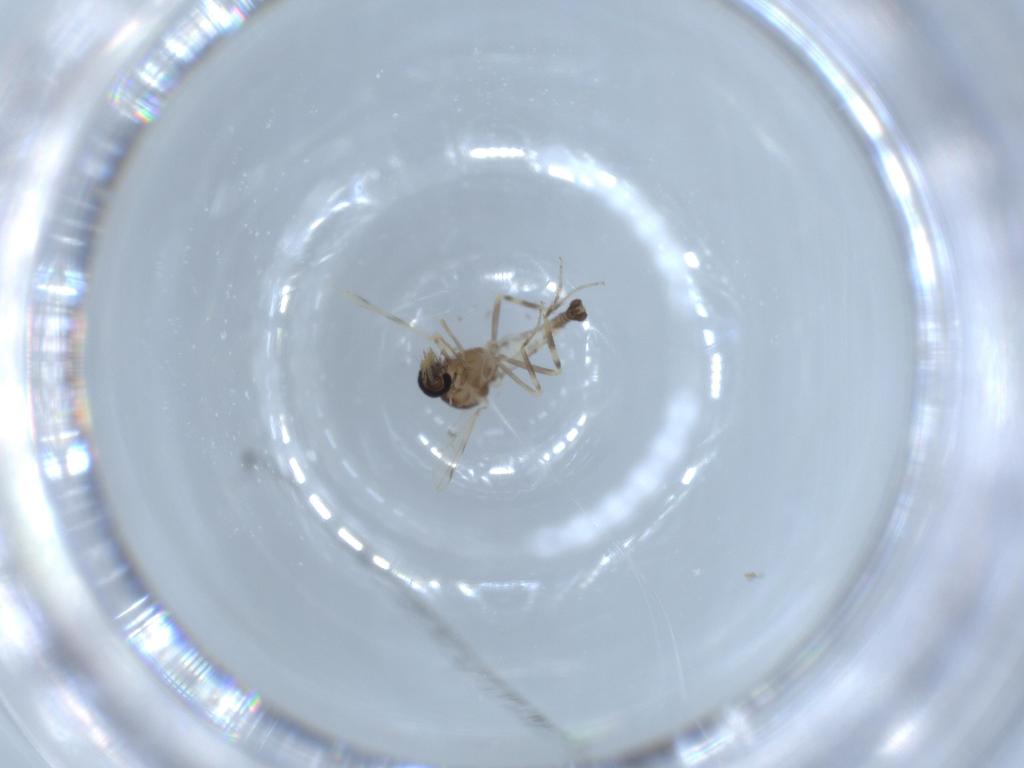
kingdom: Animalia
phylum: Arthropoda
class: Insecta
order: Diptera
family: Ceratopogonidae
